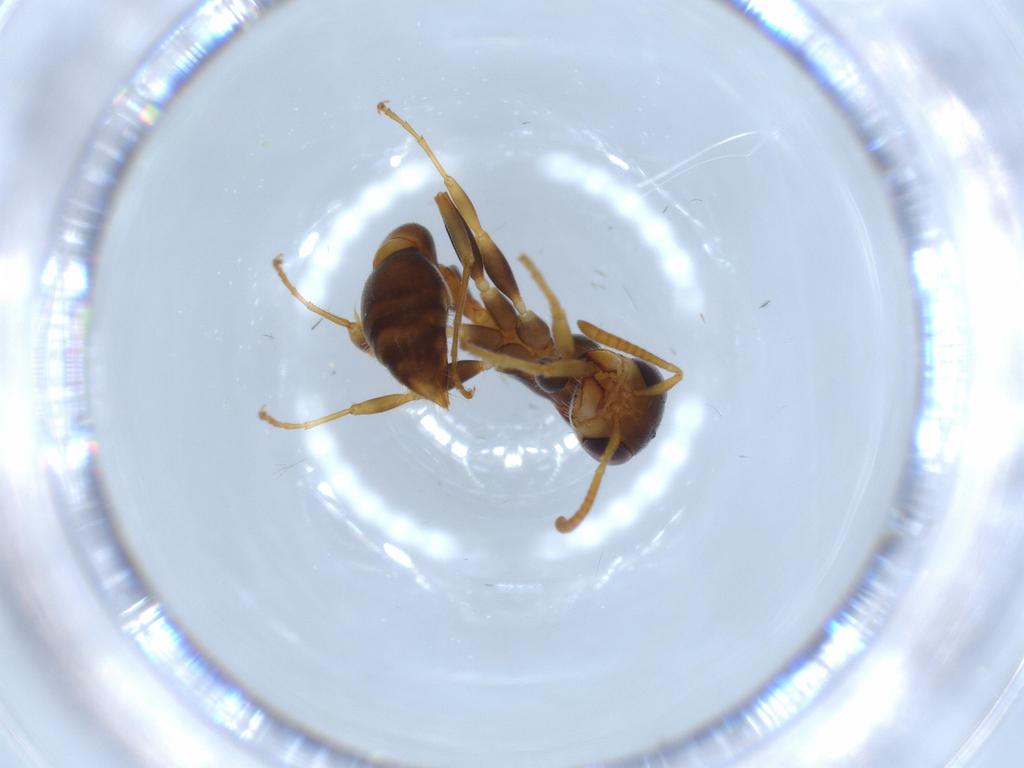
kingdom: Animalia
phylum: Arthropoda
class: Insecta
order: Hymenoptera
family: Formicidae
